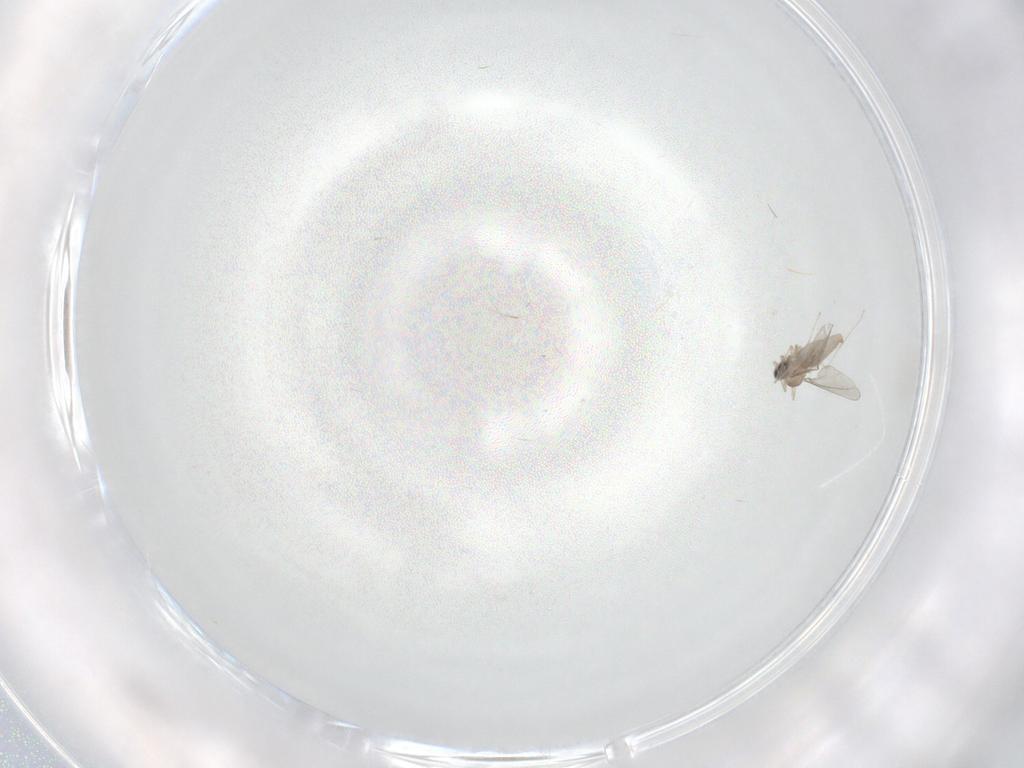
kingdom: Animalia
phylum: Arthropoda
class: Insecta
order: Diptera
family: Cecidomyiidae
